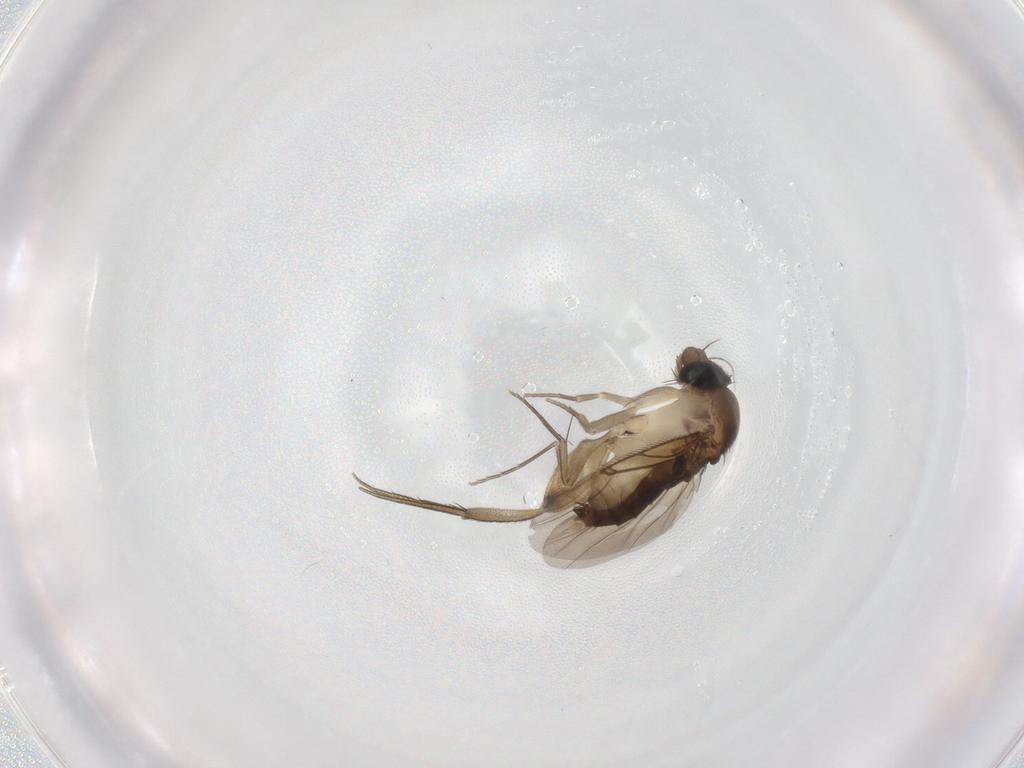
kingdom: Animalia
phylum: Arthropoda
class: Insecta
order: Diptera
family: Phoridae
